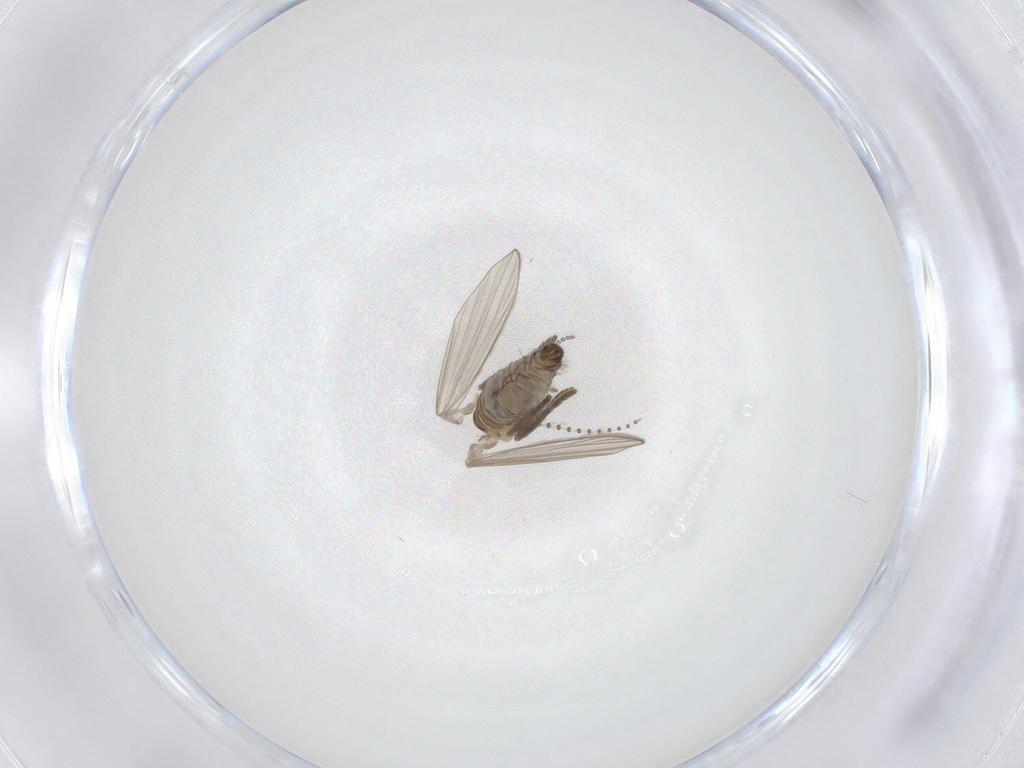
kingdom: Animalia
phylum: Arthropoda
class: Insecta
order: Diptera
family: Psychodidae
